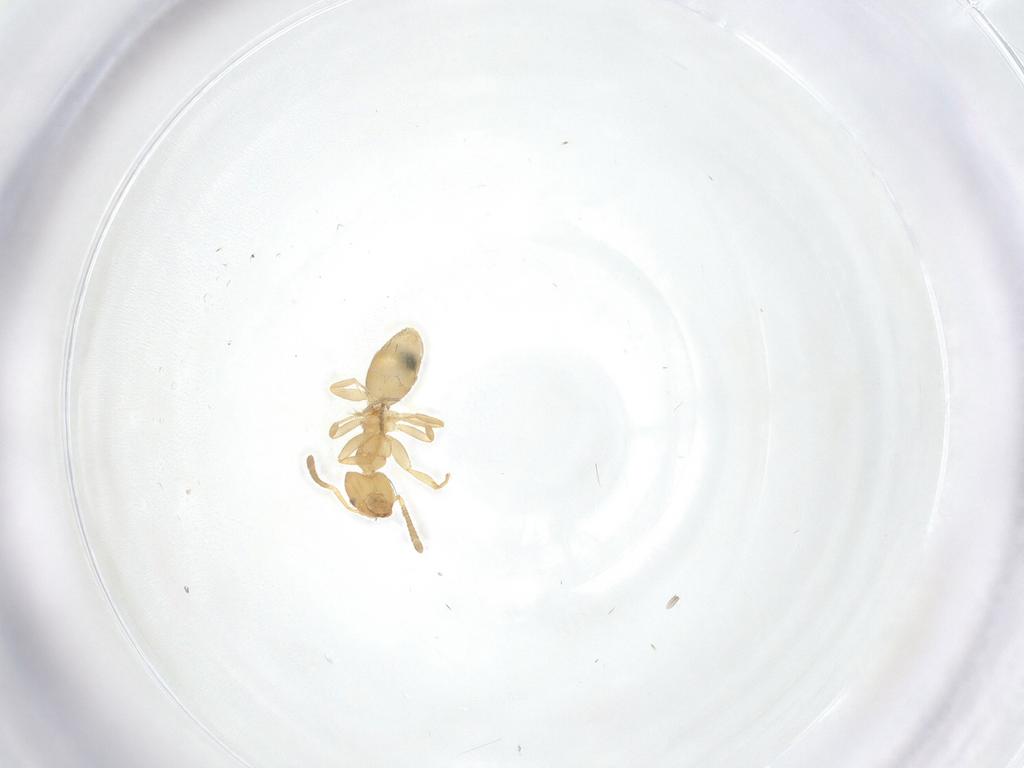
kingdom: Animalia
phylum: Arthropoda
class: Insecta
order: Hymenoptera
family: Formicidae
